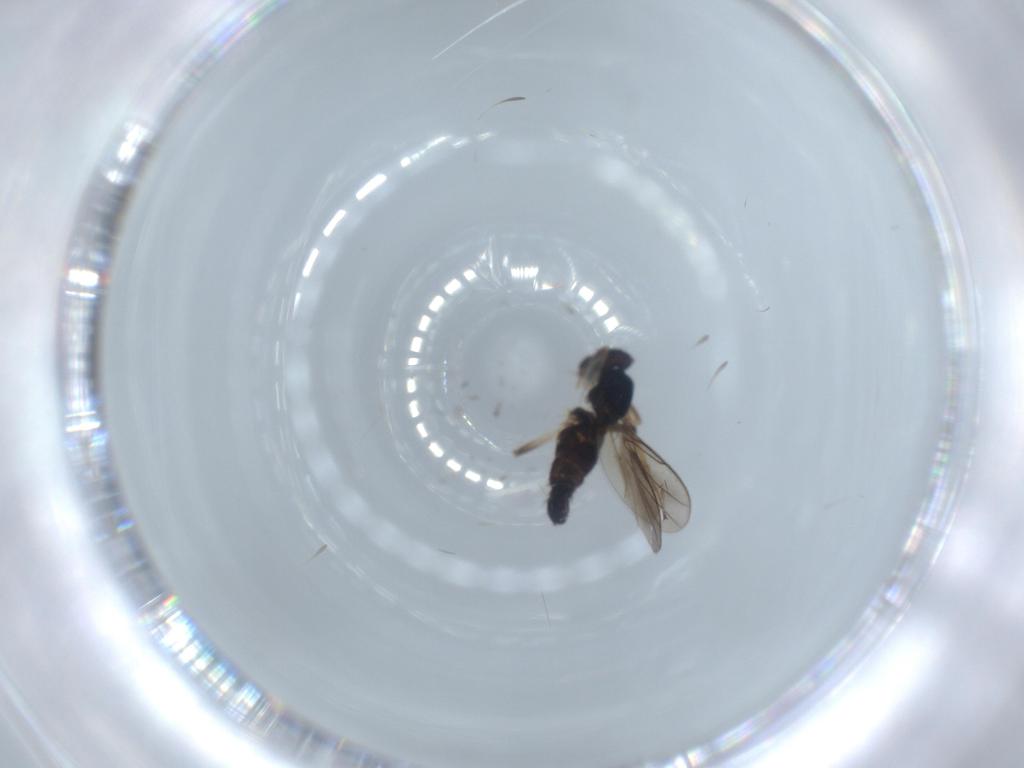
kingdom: Animalia
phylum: Arthropoda
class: Insecta
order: Diptera
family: Hybotidae
